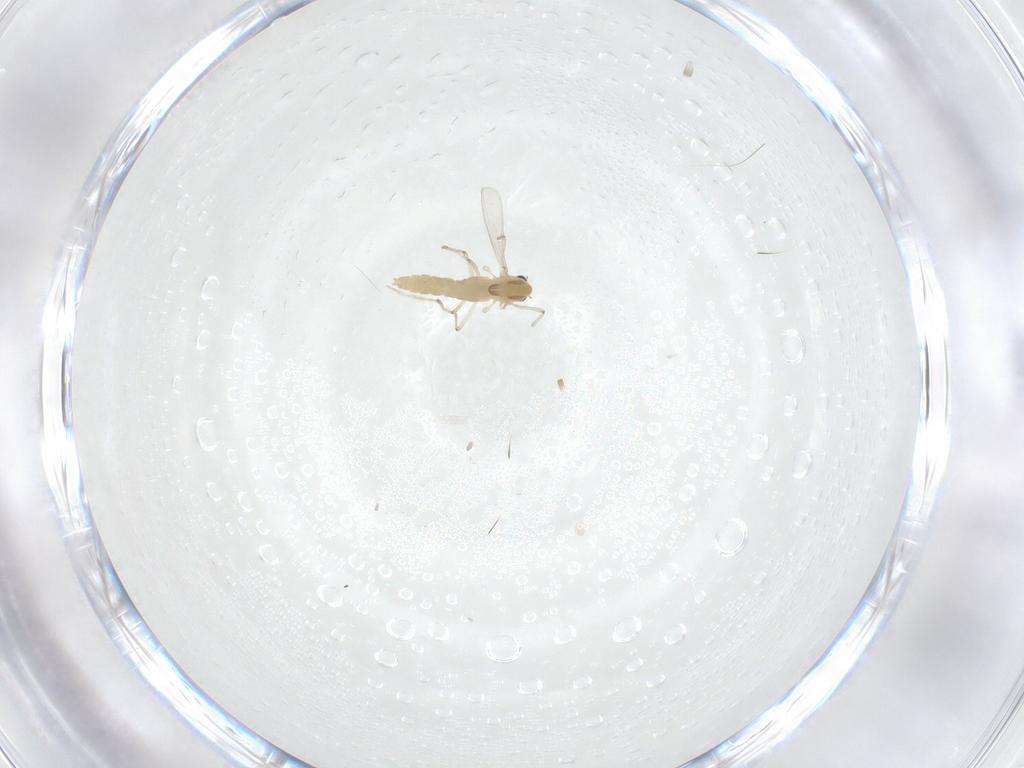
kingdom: Animalia
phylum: Arthropoda
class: Insecta
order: Diptera
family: Chironomidae
